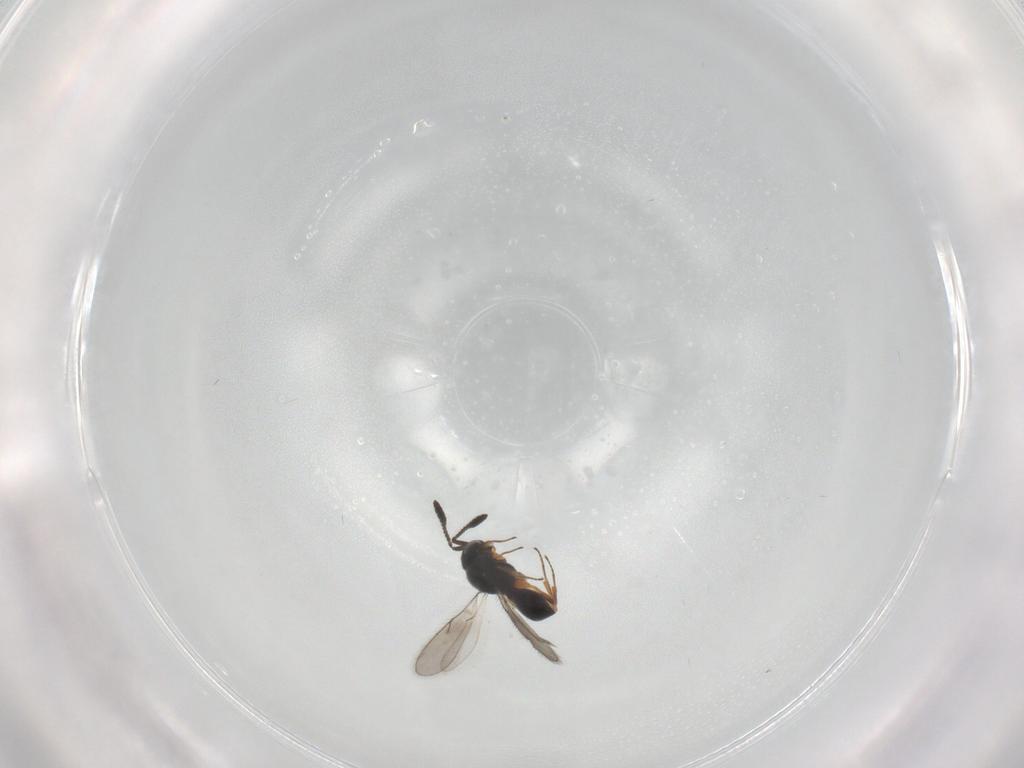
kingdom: Animalia
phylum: Arthropoda
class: Insecta
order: Hymenoptera
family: Scelionidae
